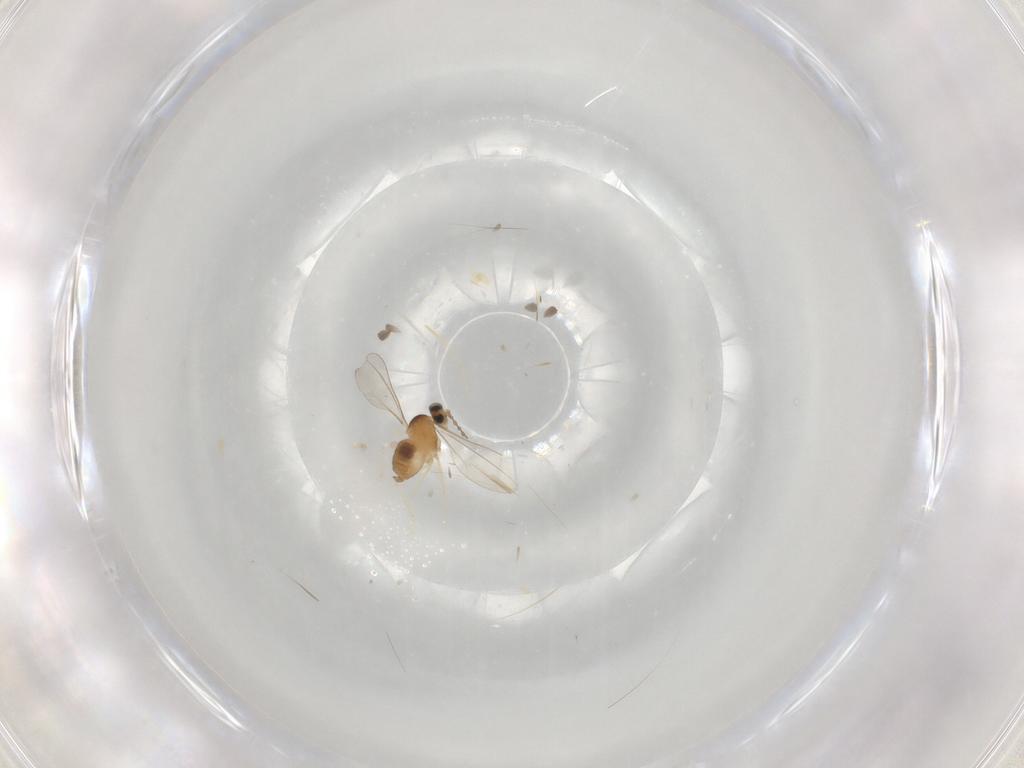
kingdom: Animalia
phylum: Arthropoda
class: Insecta
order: Diptera
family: Cecidomyiidae
